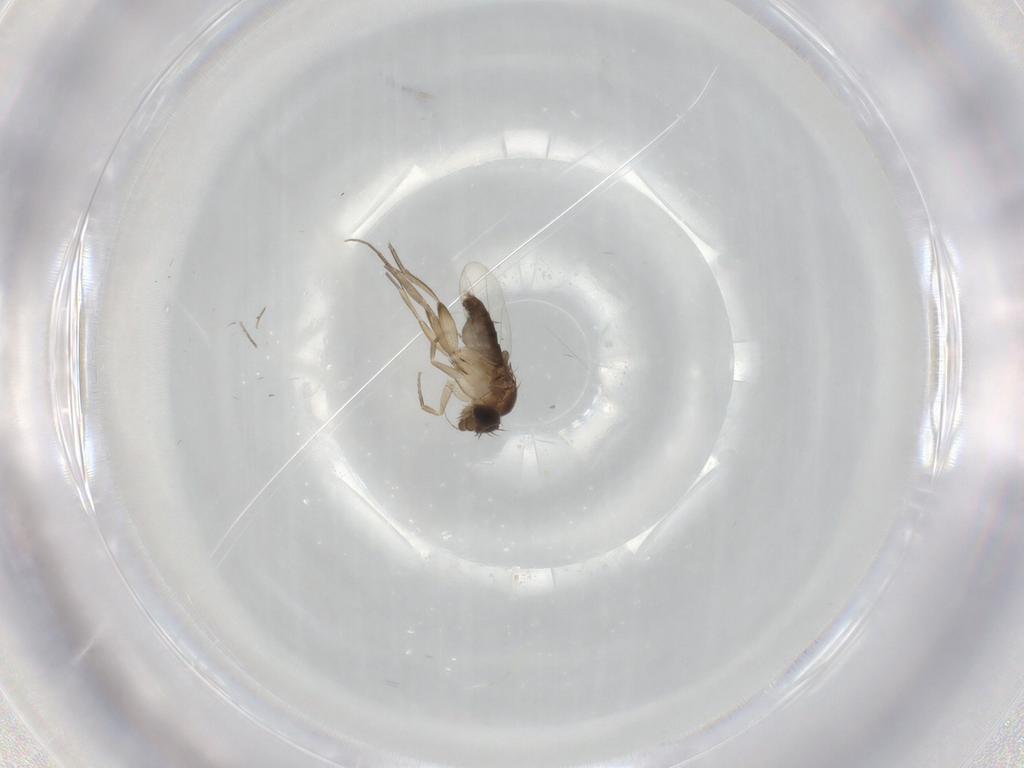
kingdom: Animalia
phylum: Arthropoda
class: Insecta
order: Diptera
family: Phoridae
